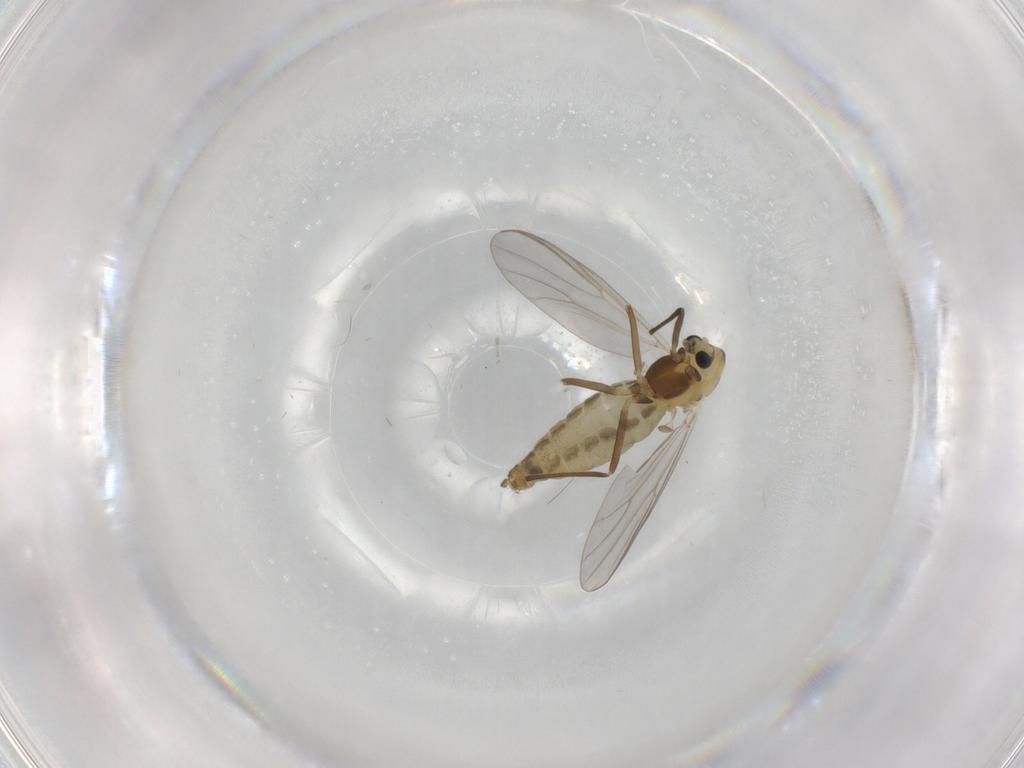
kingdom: Animalia
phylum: Arthropoda
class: Insecta
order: Diptera
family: Chironomidae
